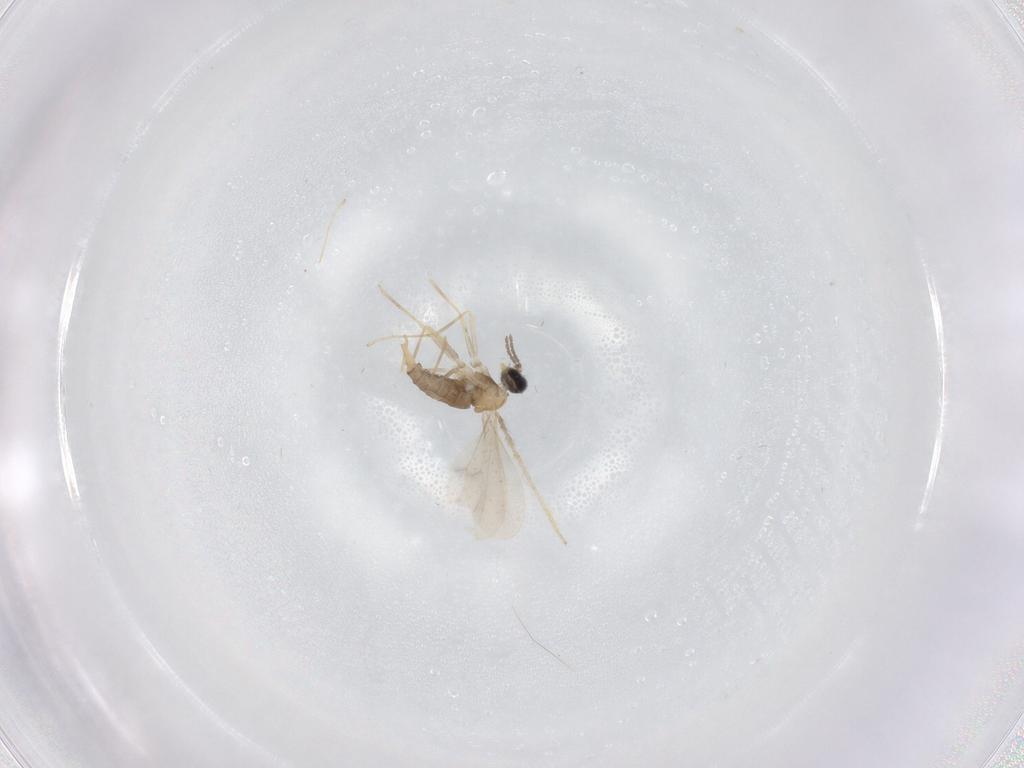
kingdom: Animalia
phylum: Arthropoda
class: Insecta
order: Diptera
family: Cecidomyiidae
